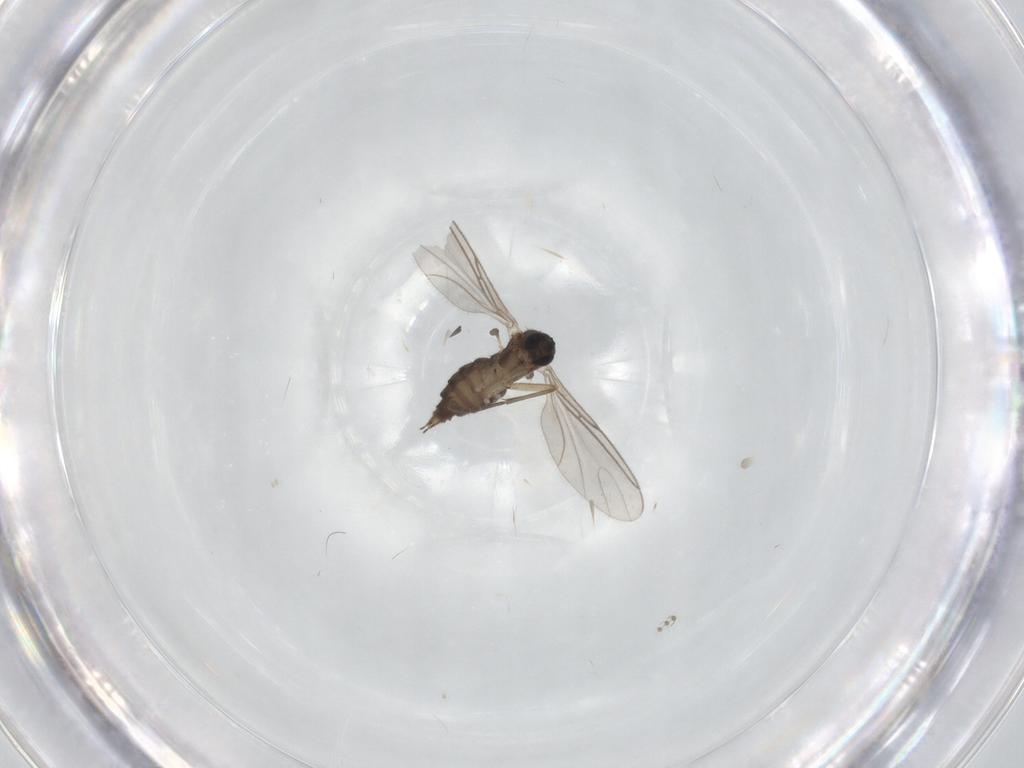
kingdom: Animalia
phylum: Arthropoda
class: Insecta
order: Diptera
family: Sciaridae
